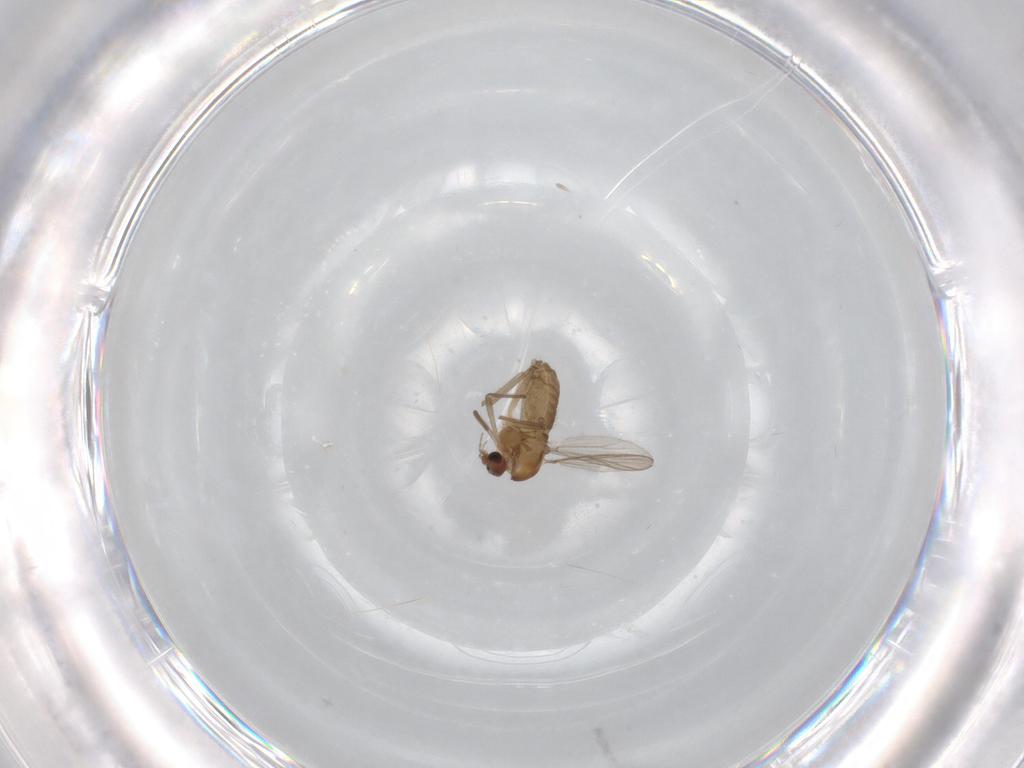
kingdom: Animalia
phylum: Arthropoda
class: Insecta
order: Diptera
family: Chironomidae
